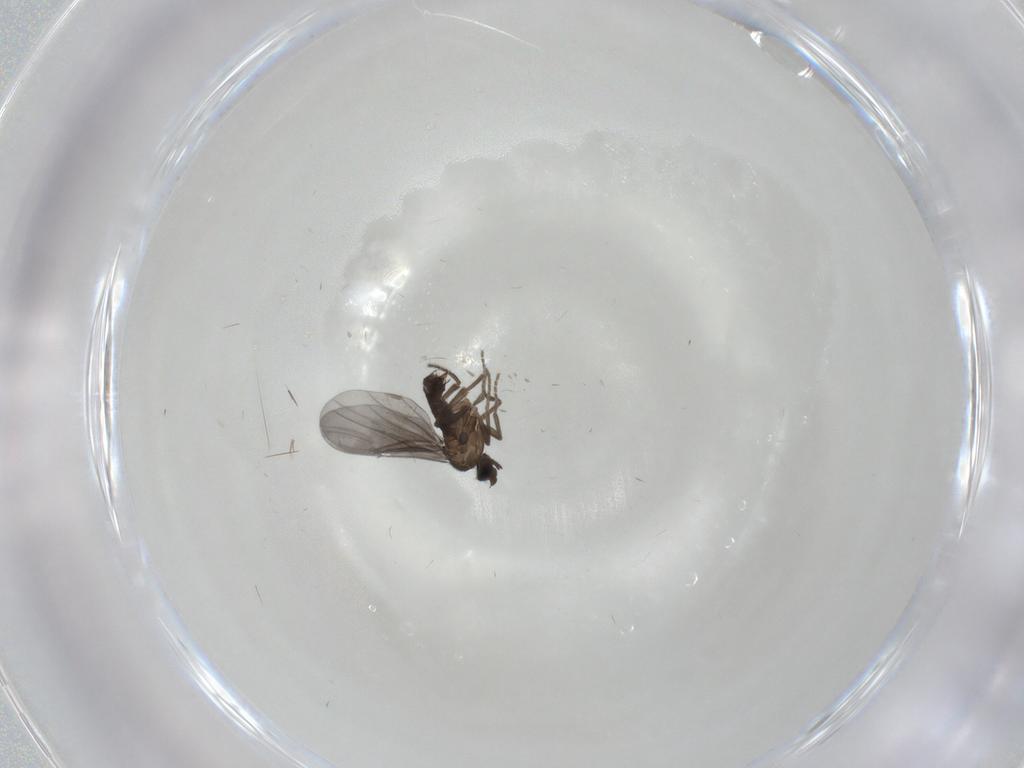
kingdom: Animalia
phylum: Arthropoda
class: Insecta
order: Diptera
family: Phoridae
